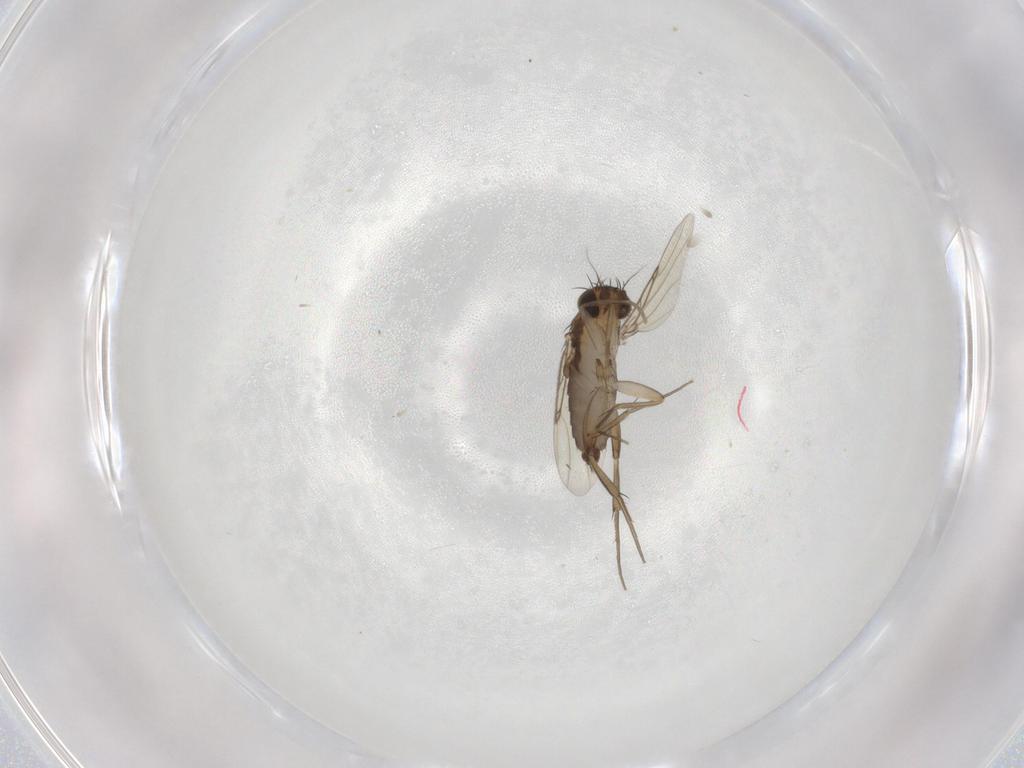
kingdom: Animalia
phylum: Arthropoda
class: Insecta
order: Diptera
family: Phoridae
